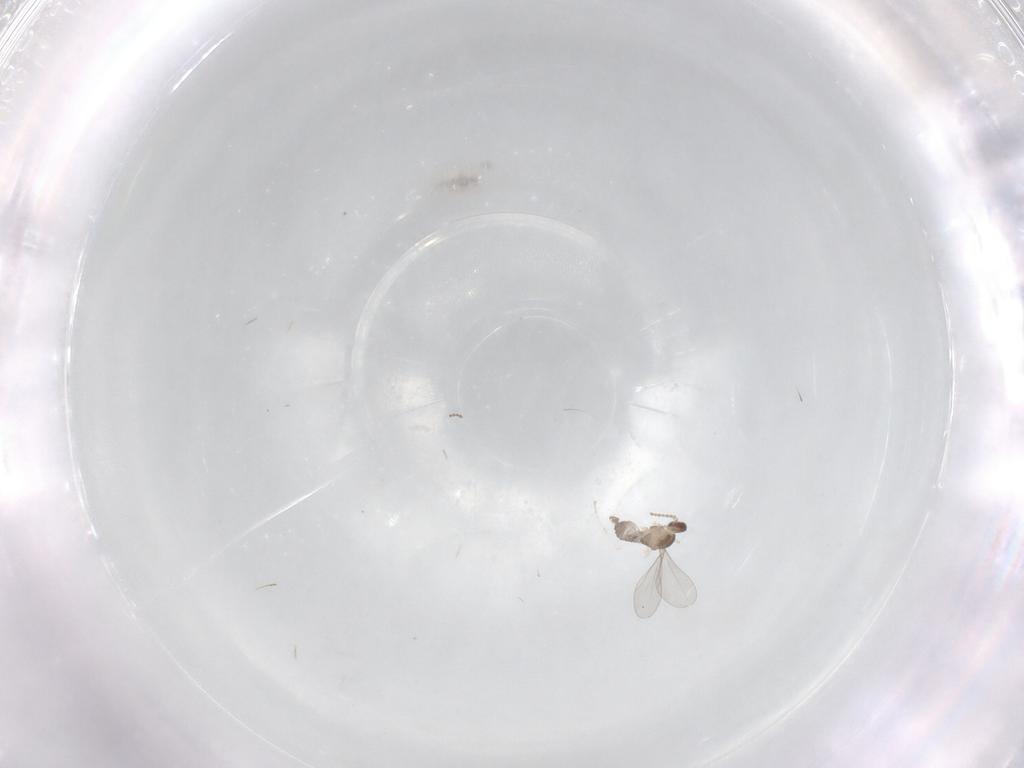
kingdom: Animalia
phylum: Arthropoda
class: Insecta
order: Diptera
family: Cecidomyiidae
